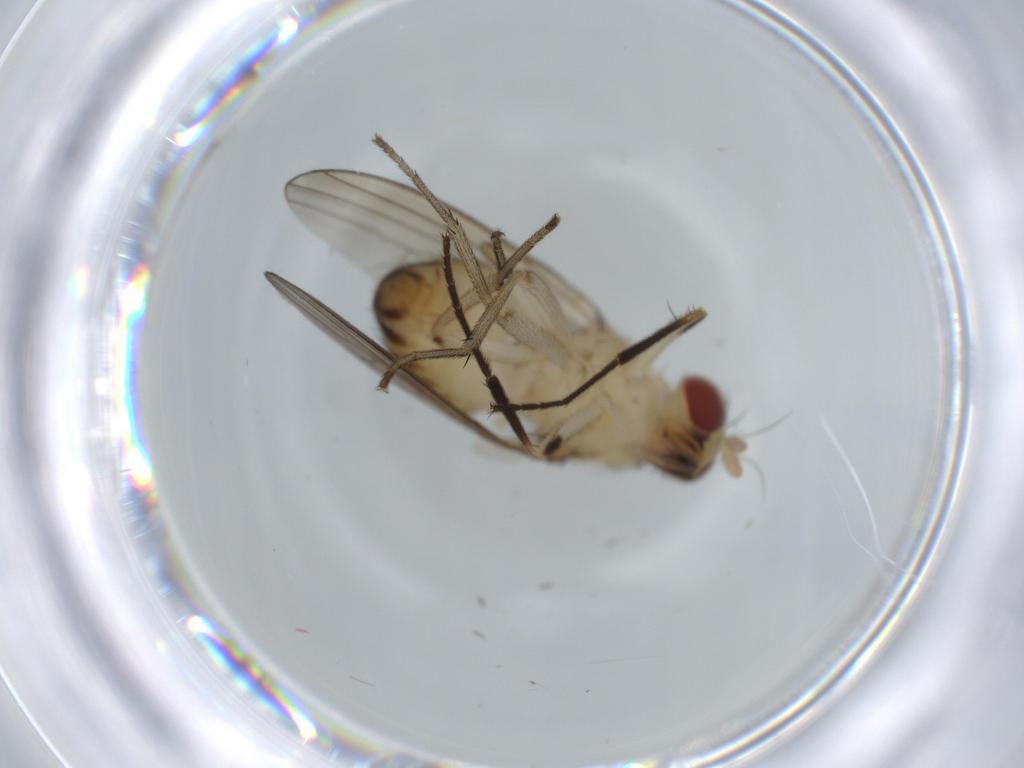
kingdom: Animalia
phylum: Arthropoda
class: Insecta
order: Diptera
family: Lauxaniidae
